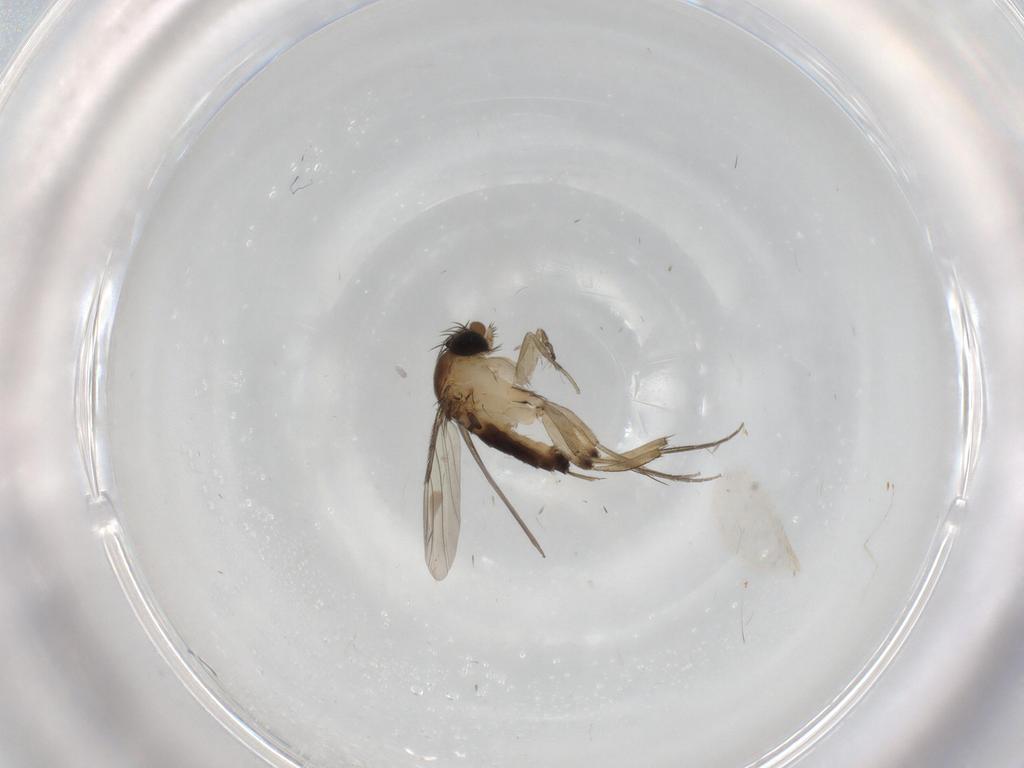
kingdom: Animalia
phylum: Arthropoda
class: Insecta
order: Diptera
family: Phoridae
